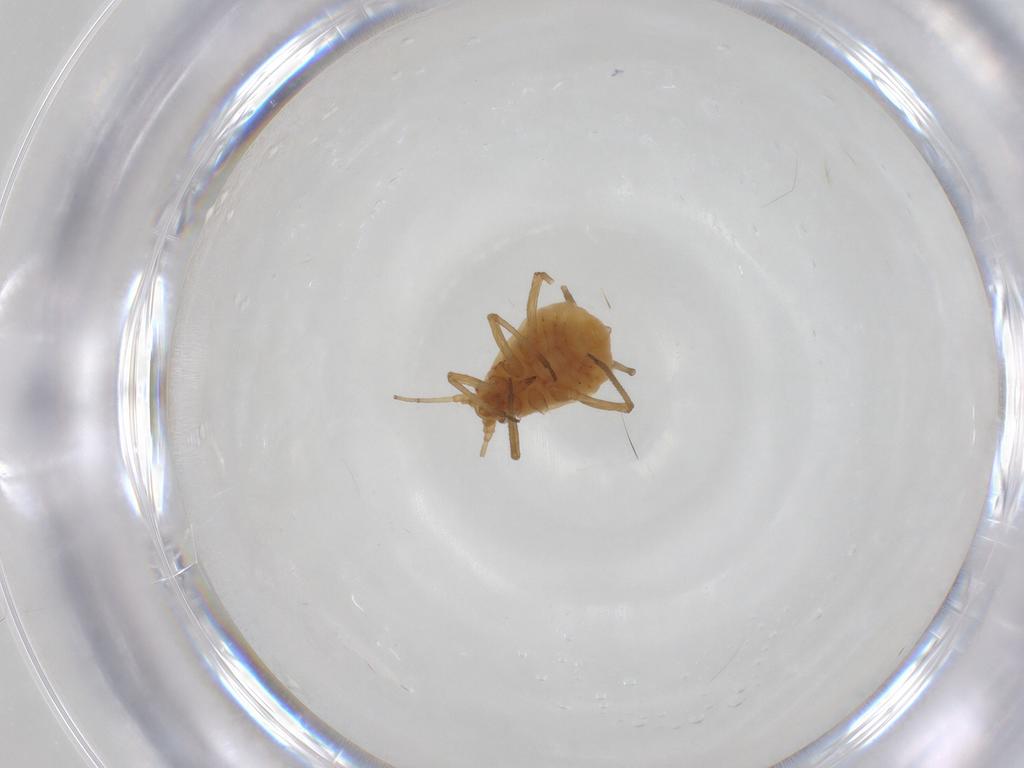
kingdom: Animalia
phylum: Arthropoda
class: Insecta
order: Hemiptera
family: Aphididae
